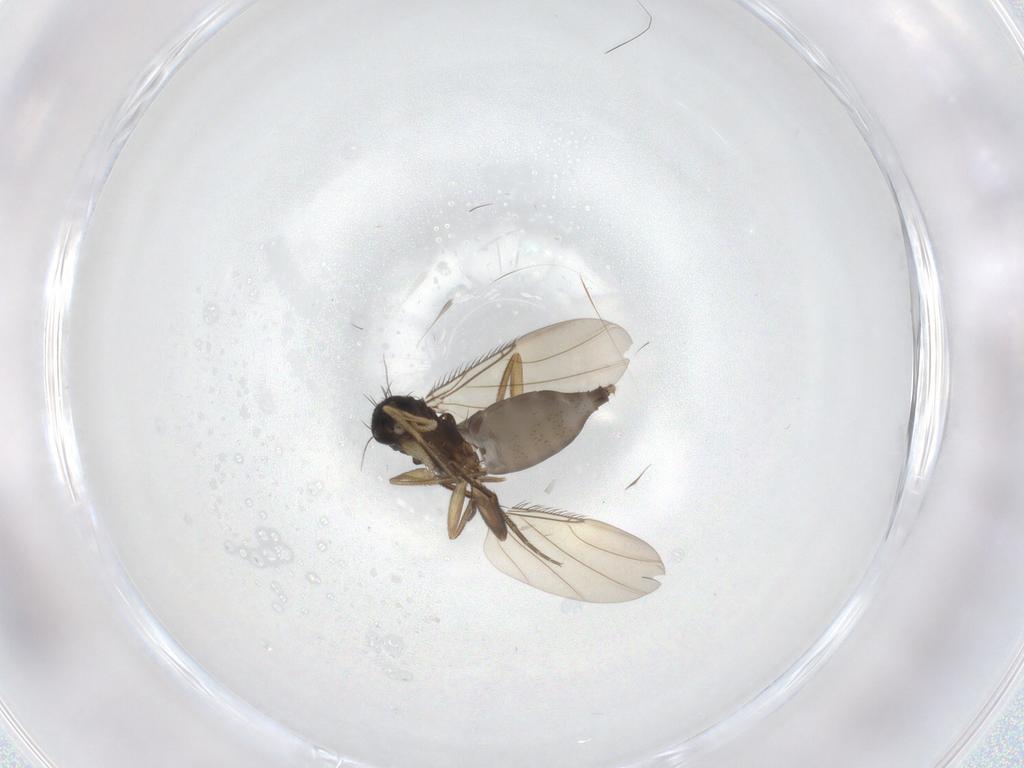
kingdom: Animalia
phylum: Arthropoda
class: Insecta
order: Diptera
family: Phoridae
